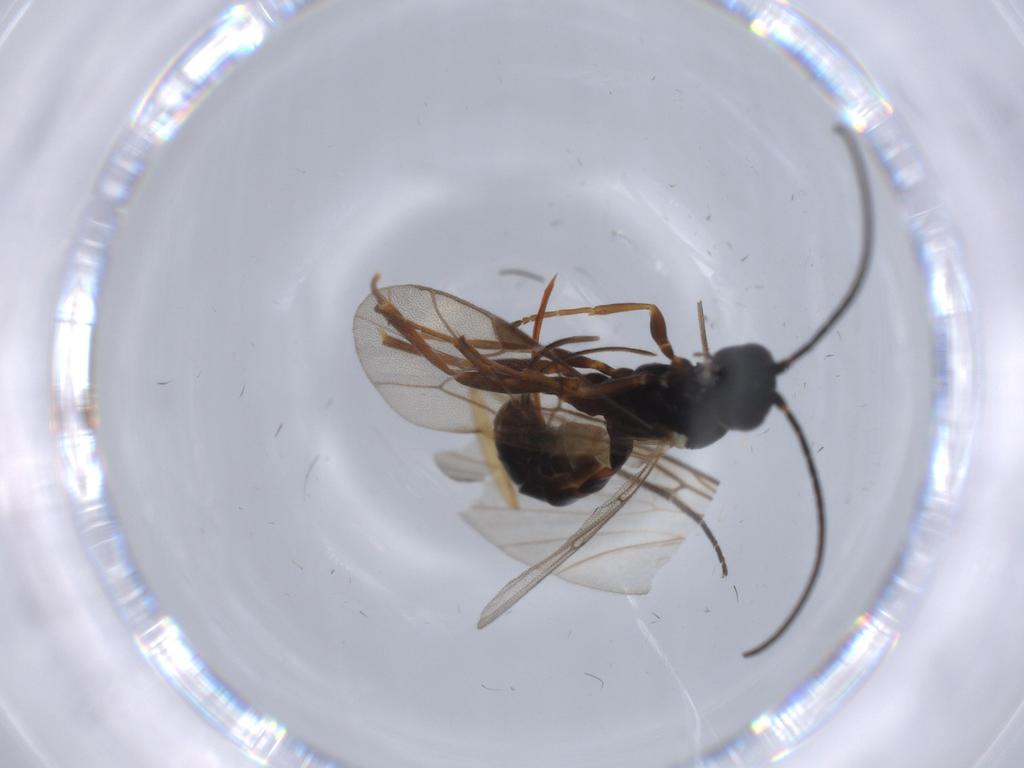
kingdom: Animalia
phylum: Arthropoda
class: Insecta
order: Hymenoptera
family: Ichneumonidae
